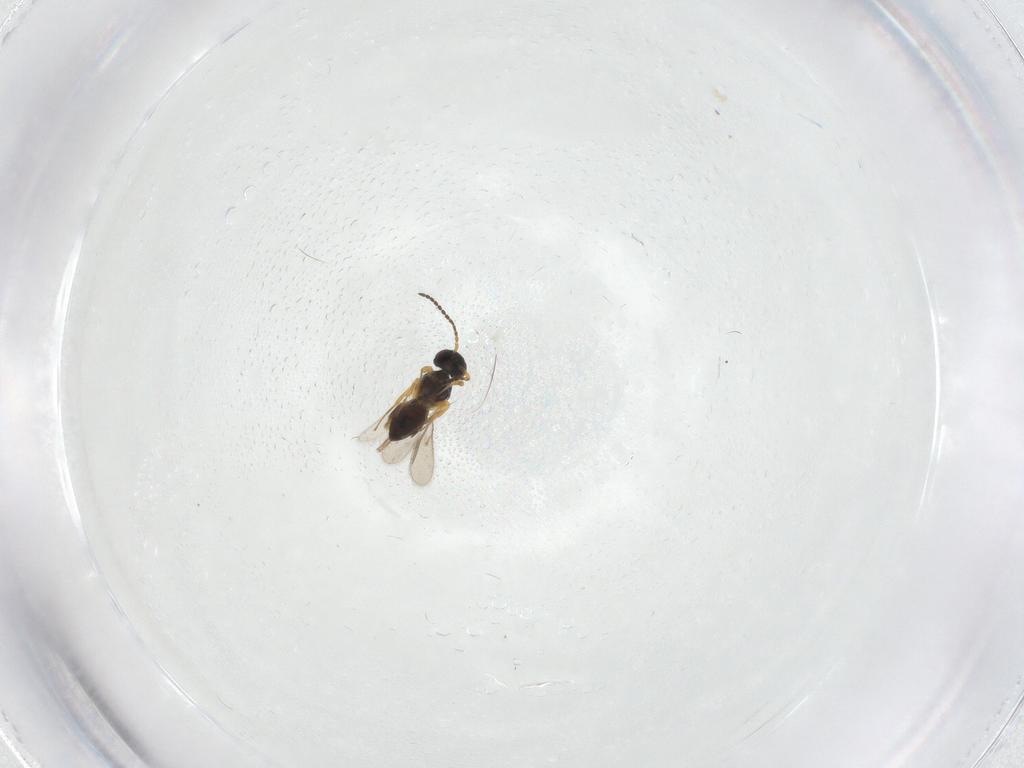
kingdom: Animalia
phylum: Arthropoda
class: Insecta
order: Hymenoptera
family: Scelionidae
